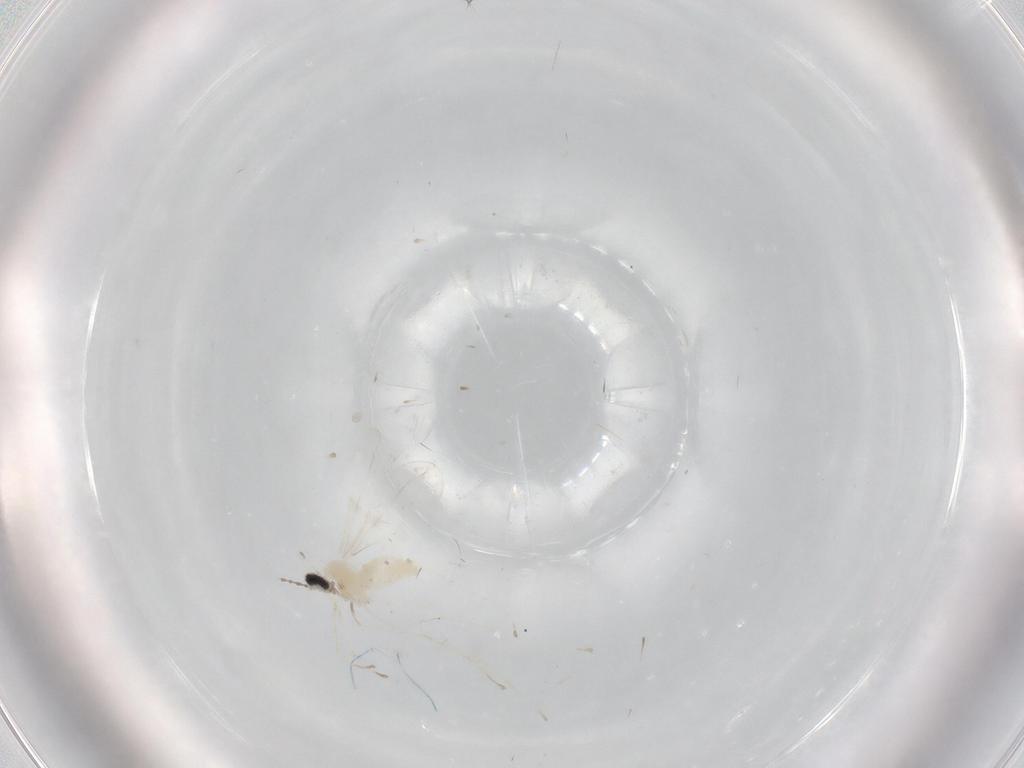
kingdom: Animalia
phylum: Arthropoda
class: Insecta
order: Diptera
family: Cecidomyiidae
